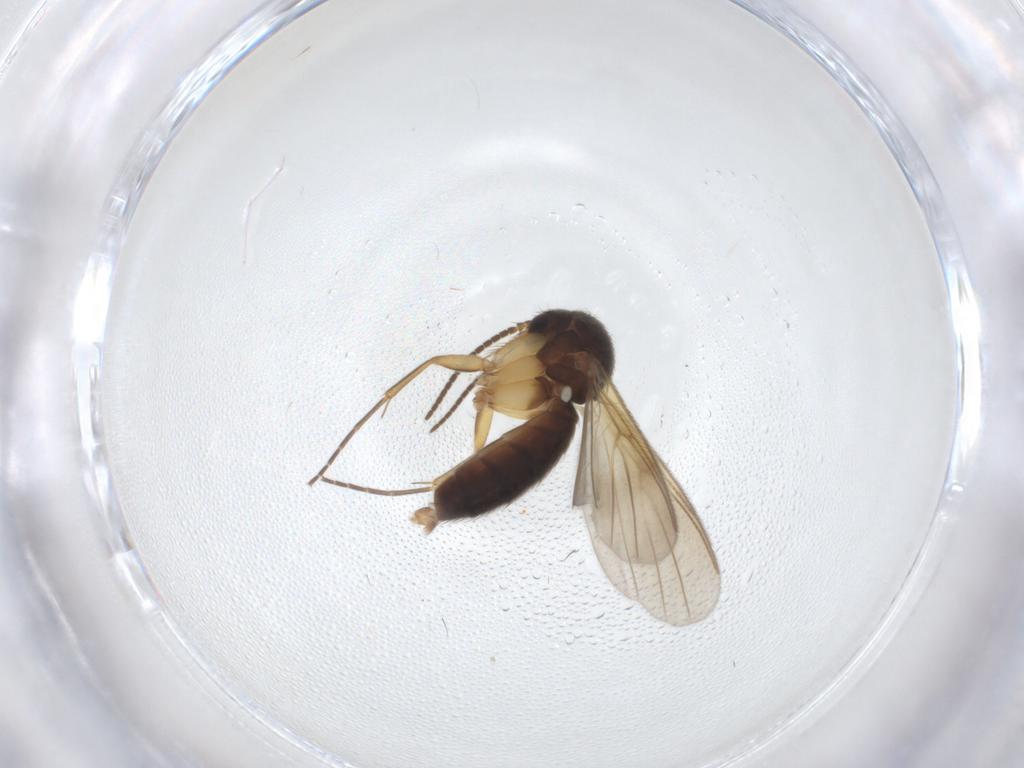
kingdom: Animalia
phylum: Arthropoda
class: Insecta
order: Diptera
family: Mycetophilidae
